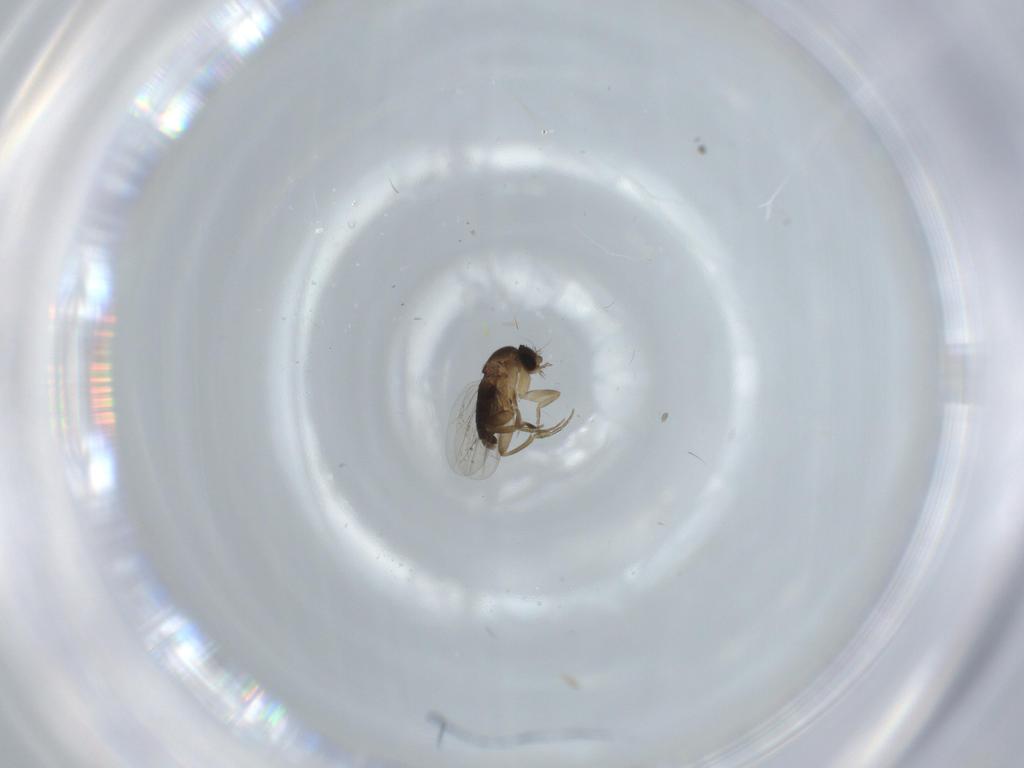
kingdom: Animalia
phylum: Arthropoda
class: Insecta
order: Diptera
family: Phoridae
